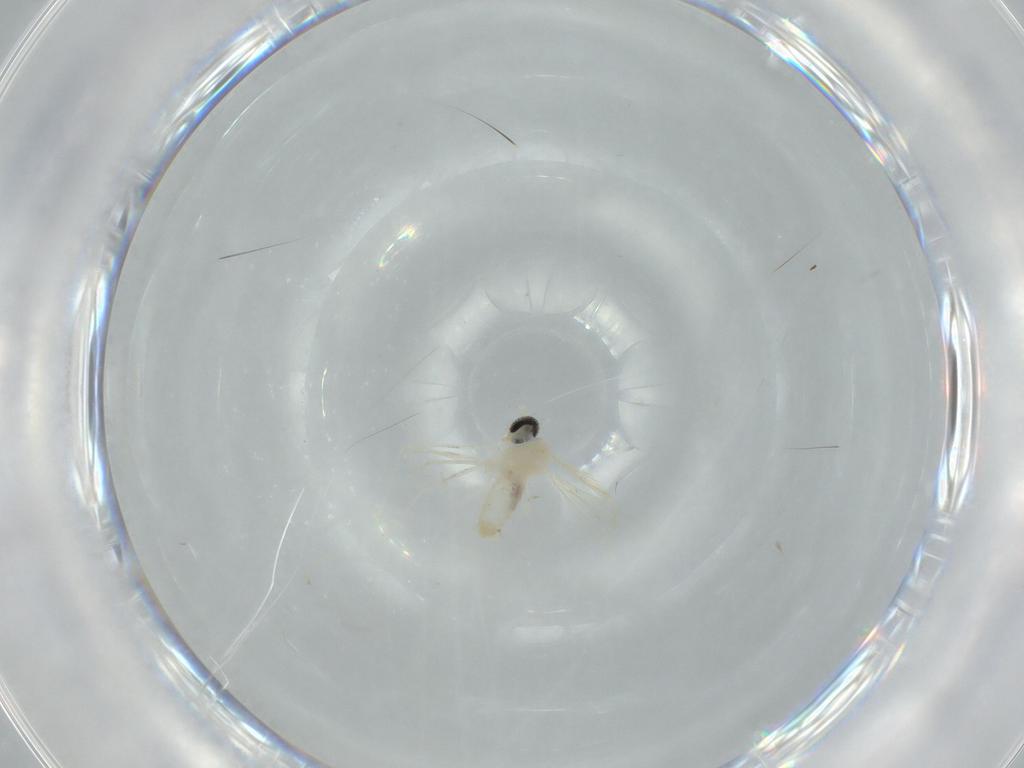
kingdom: Animalia
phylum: Arthropoda
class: Insecta
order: Diptera
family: Cecidomyiidae
